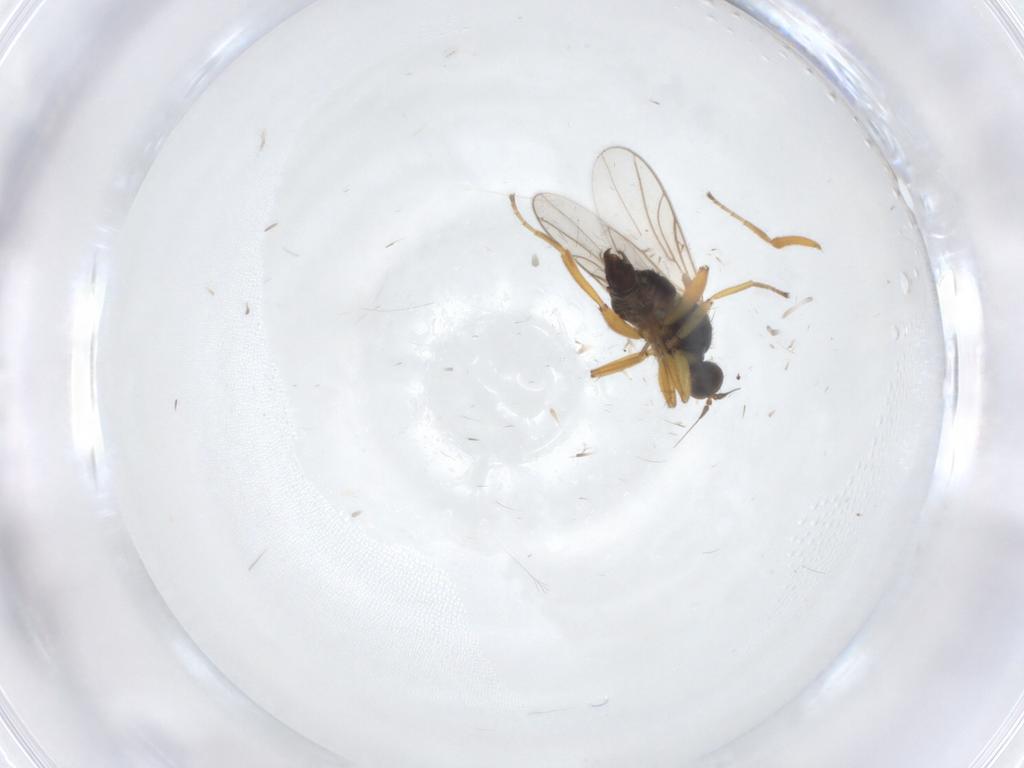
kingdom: Animalia
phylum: Arthropoda
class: Insecta
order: Diptera
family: Hybotidae
